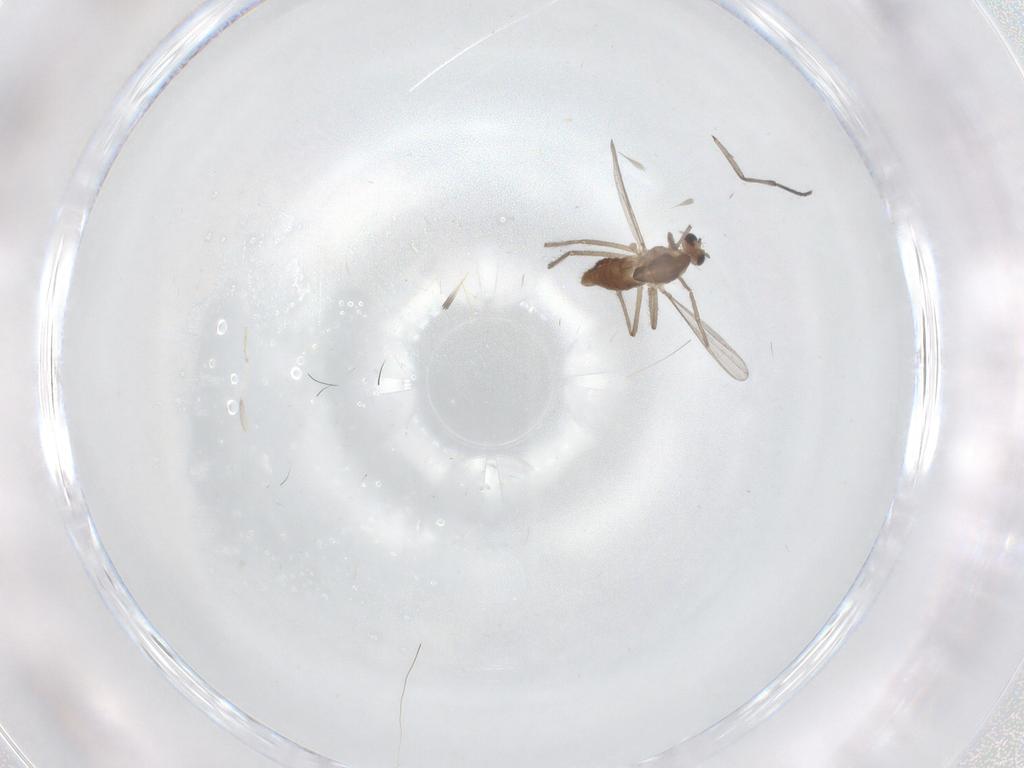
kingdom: Animalia
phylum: Arthropoda
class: Insecta
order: Diptera
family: Chironomidae
